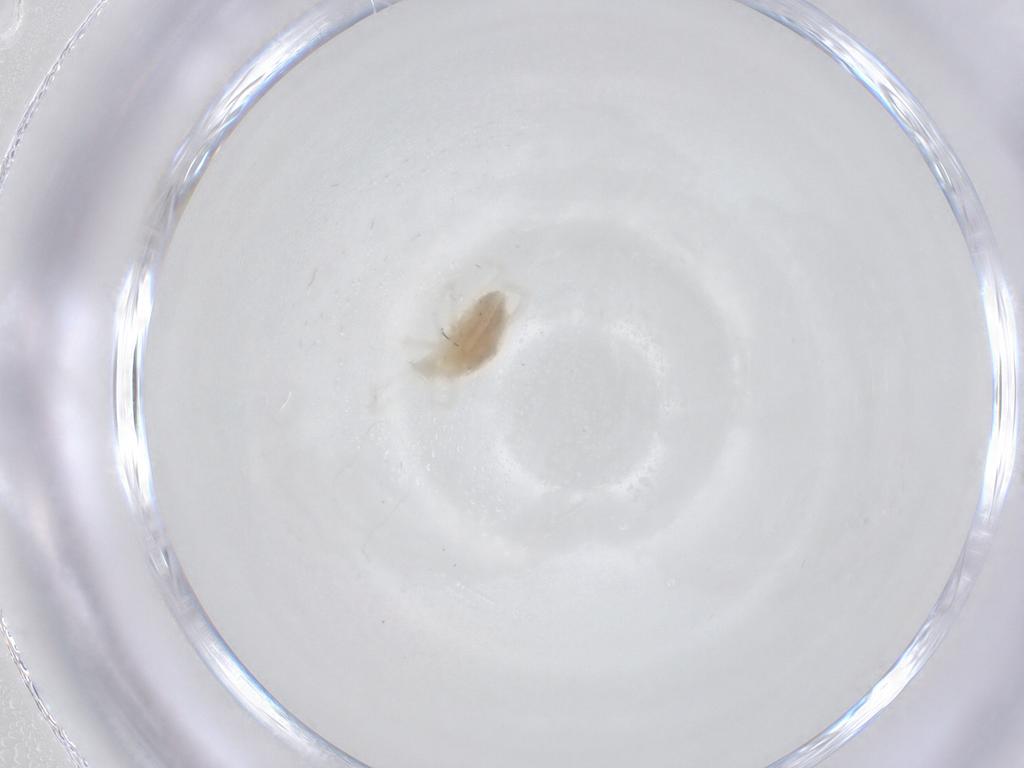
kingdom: Animalia
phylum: Arthropoda
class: Arachnida
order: Trombidiformes
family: Teneriffiidae
